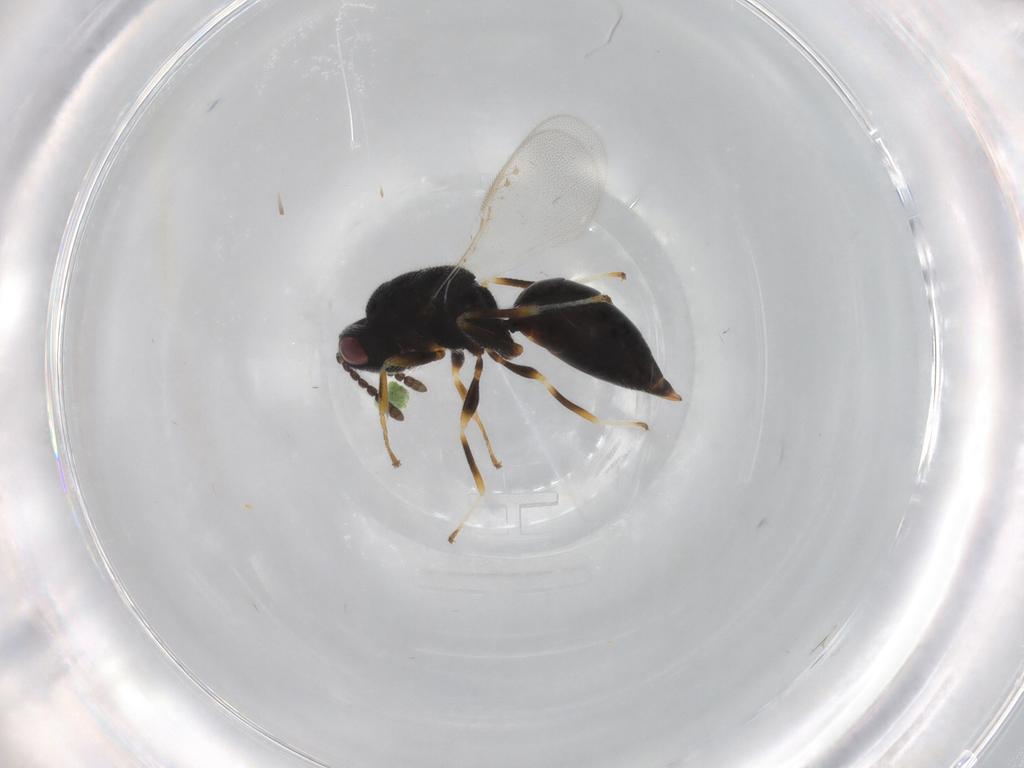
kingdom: Animalia
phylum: Arthropoda
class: Insecta
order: Hymenoptera
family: Eurytomidae
